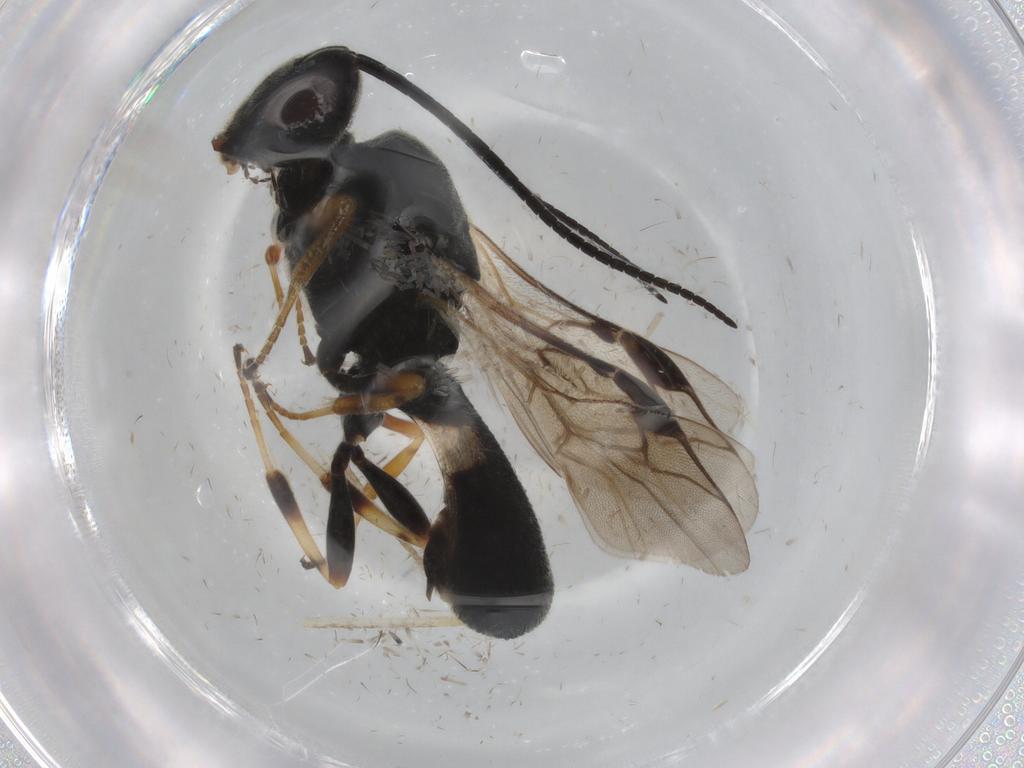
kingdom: Animalia
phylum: Arthropoda
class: Insecta
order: Hymenoptera
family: Braconidae
